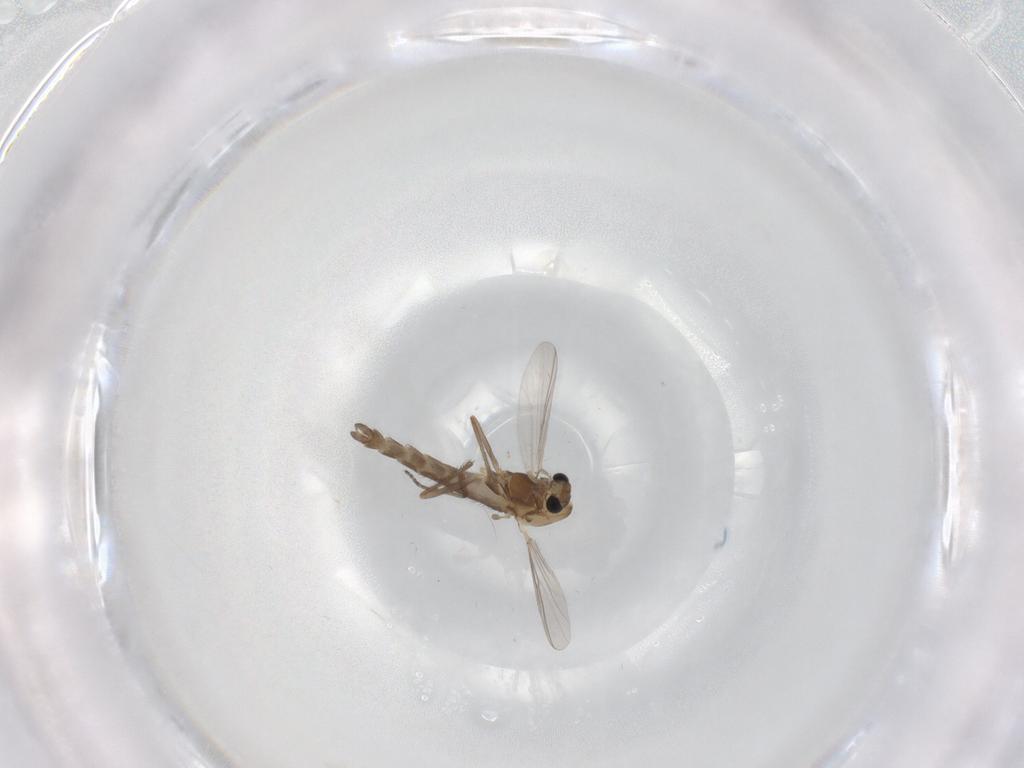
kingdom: Animalia
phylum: Arthropoda
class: Insecta
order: Diptera
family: Chironomidae
